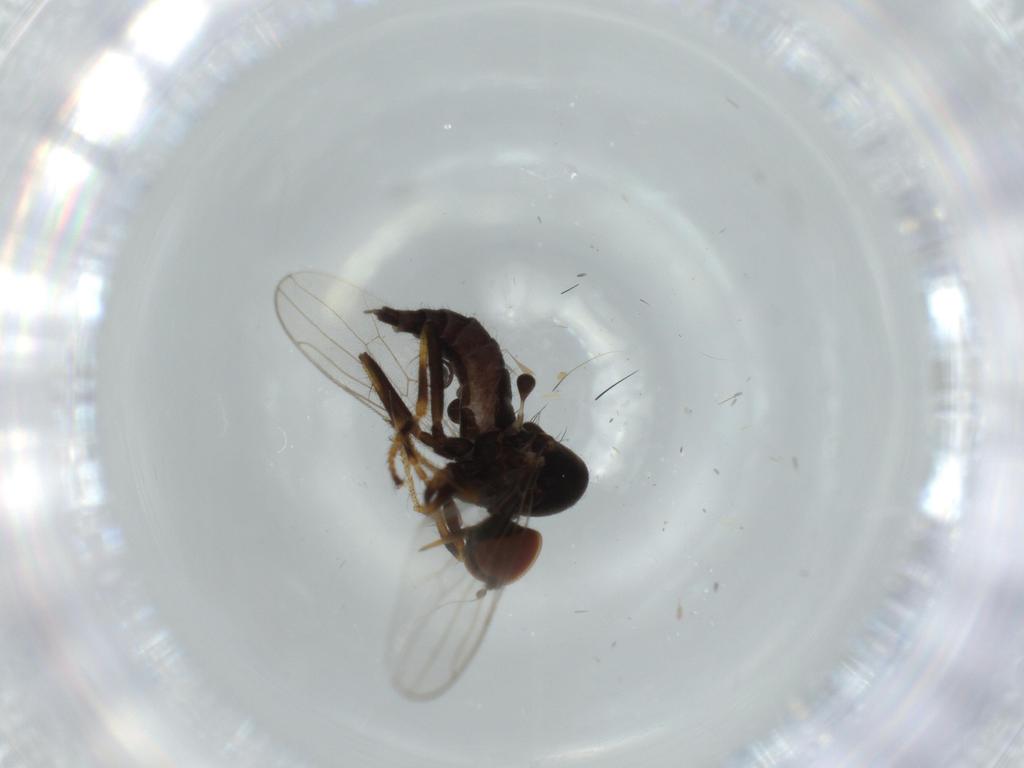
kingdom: Animalia
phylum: Arthropoda
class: Insecta
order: Diptera
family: Hybotidae
